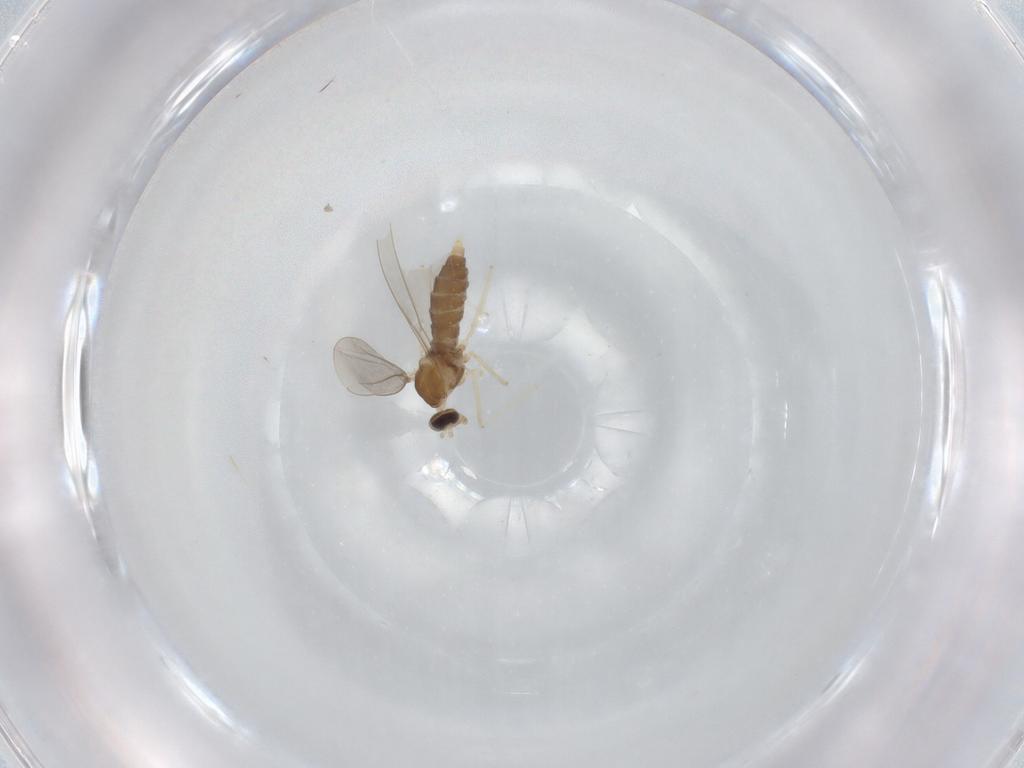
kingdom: Animalia
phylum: Arthropoda
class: Insecta
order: Diptera
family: Cecidomyiidae
